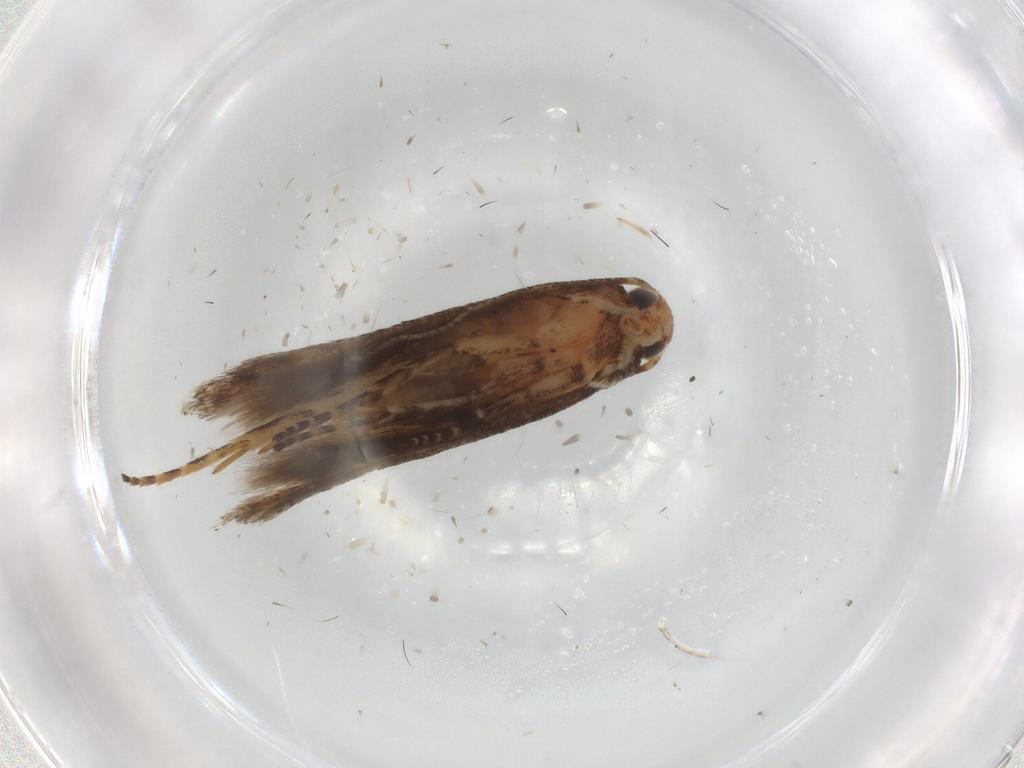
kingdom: Animalia
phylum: Arthropoda
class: Insecta
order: Lepidoptera
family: Gelechiidae
